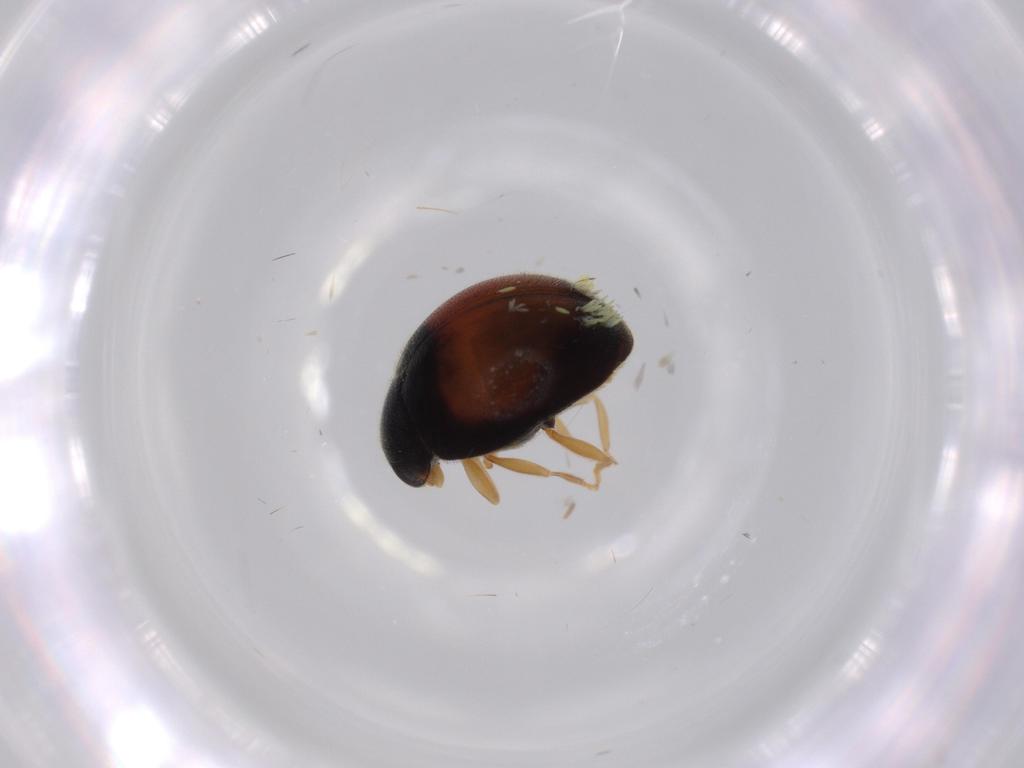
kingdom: Animalia
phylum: Arthropoda
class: Insecta
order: Coleoptera
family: Coccinellidae
